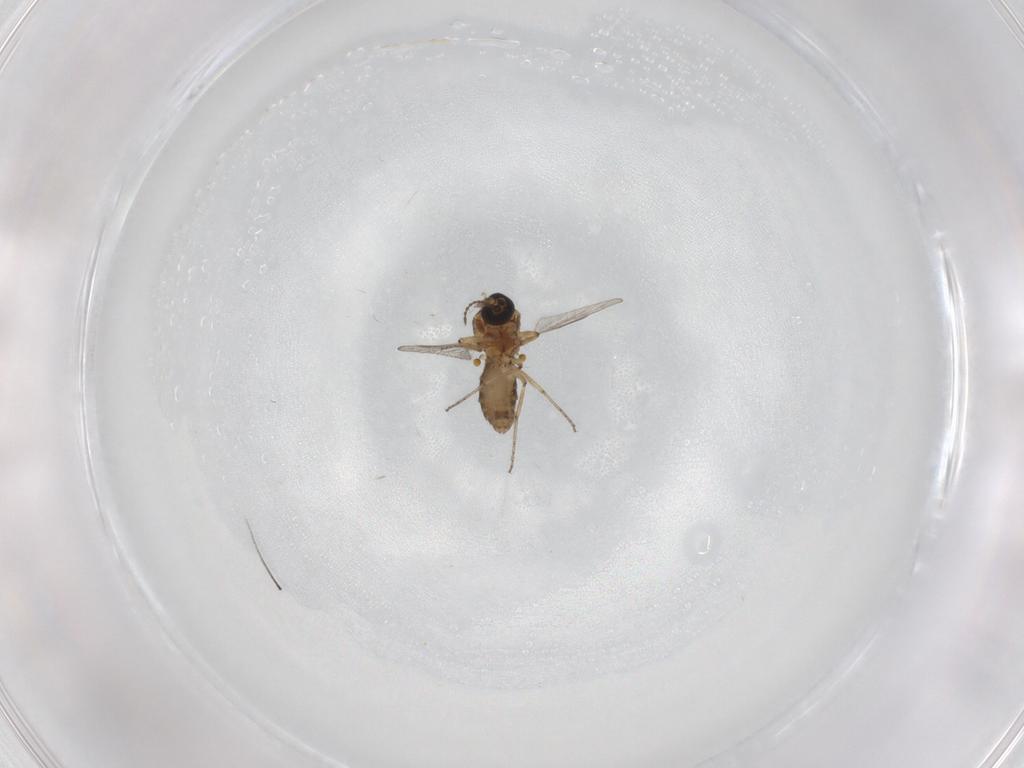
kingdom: Animalia
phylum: Arthropoda
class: Insecta
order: Diptera
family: Ceratopogonidae
